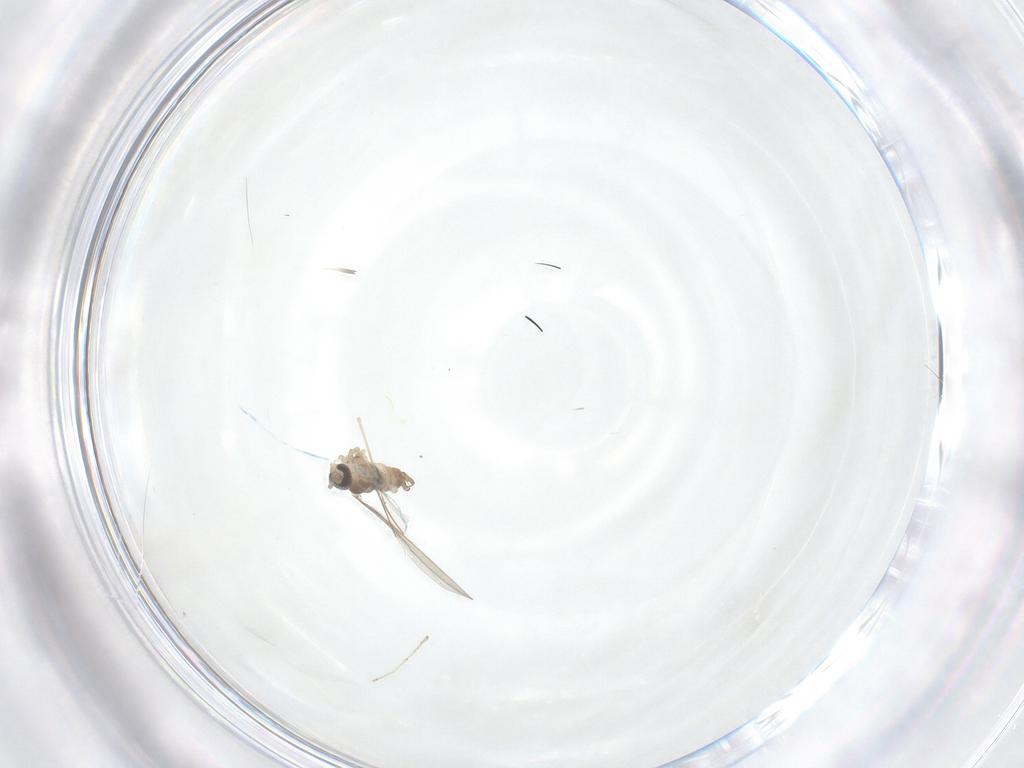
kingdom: Animalia
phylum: Arthropoda
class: Insecta
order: Diptera
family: Cecidomyiidae
